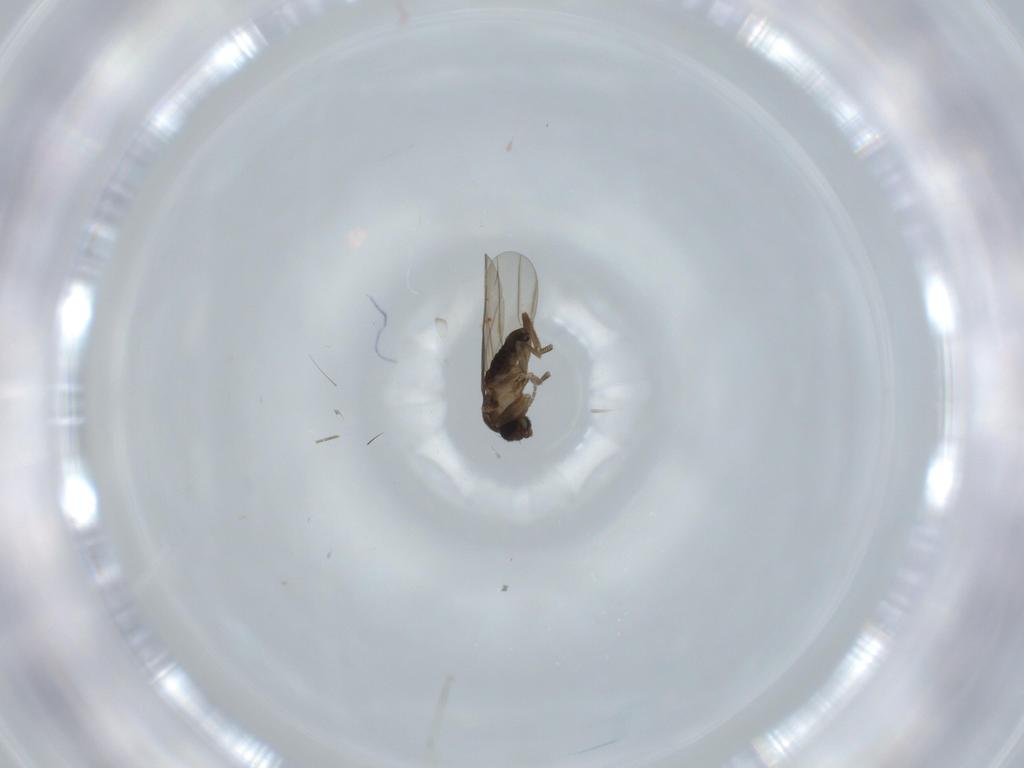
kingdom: Animalia
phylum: Arthropoda
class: Insecta
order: Diptera
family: Phoridae
